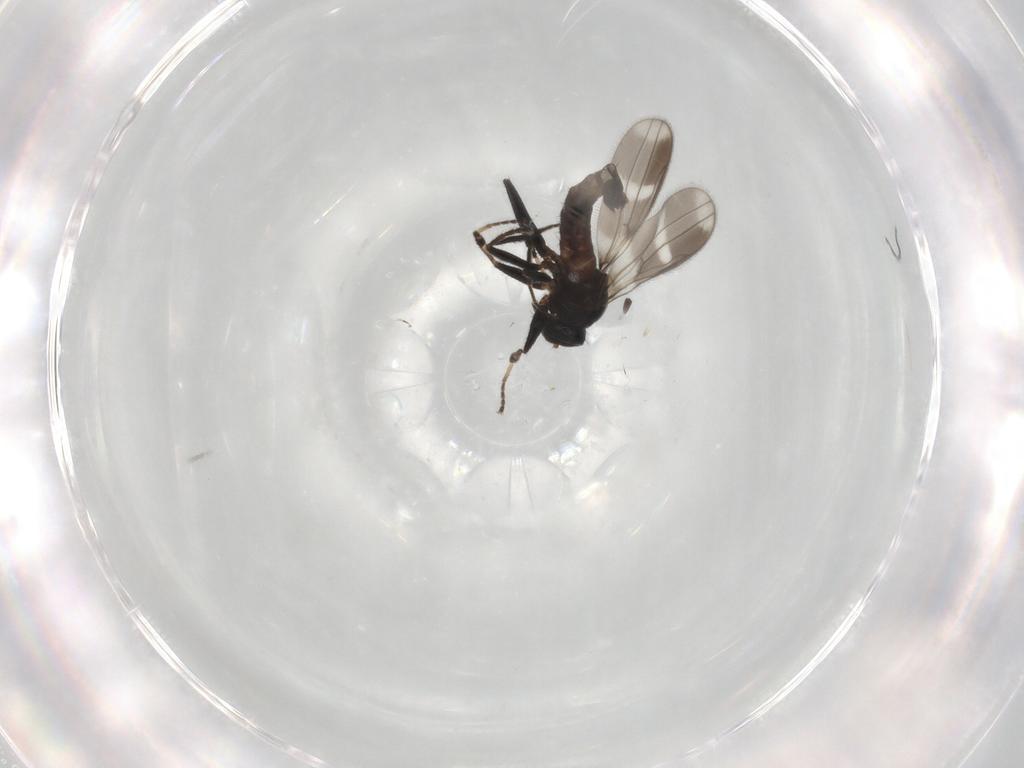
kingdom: Animalia
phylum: Arthropoda
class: Insecta
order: Diptera
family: Hybotidae
